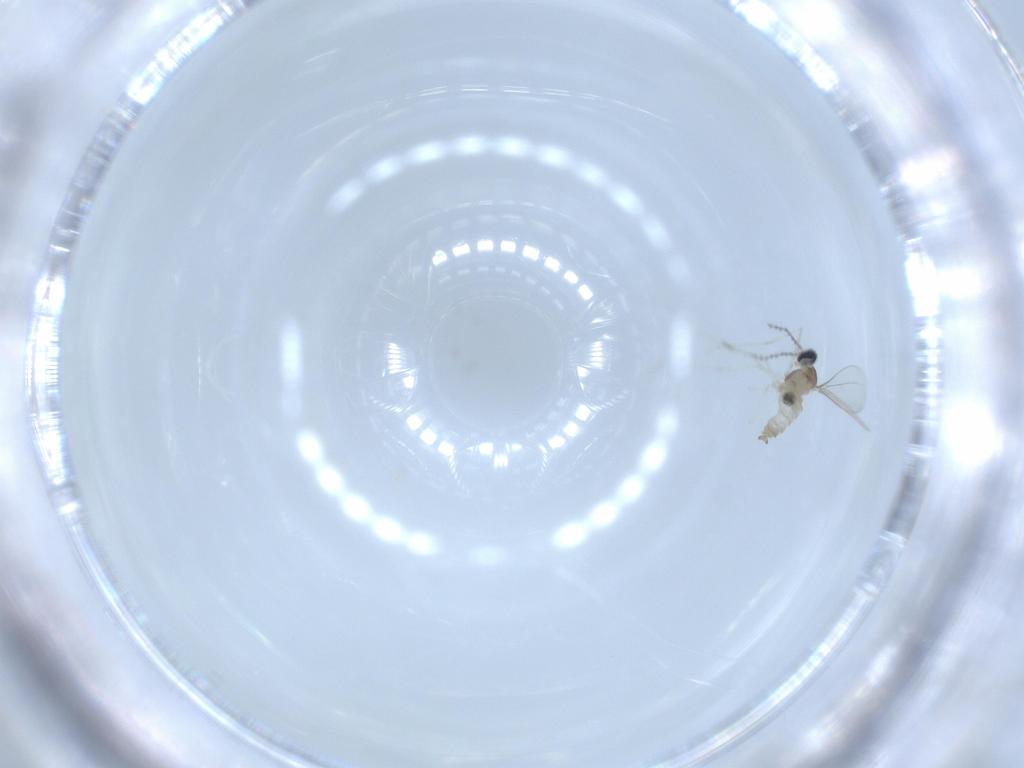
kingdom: Animalia
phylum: Arthropoda
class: Insecta
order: Diptera
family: Cecidomyiidae
